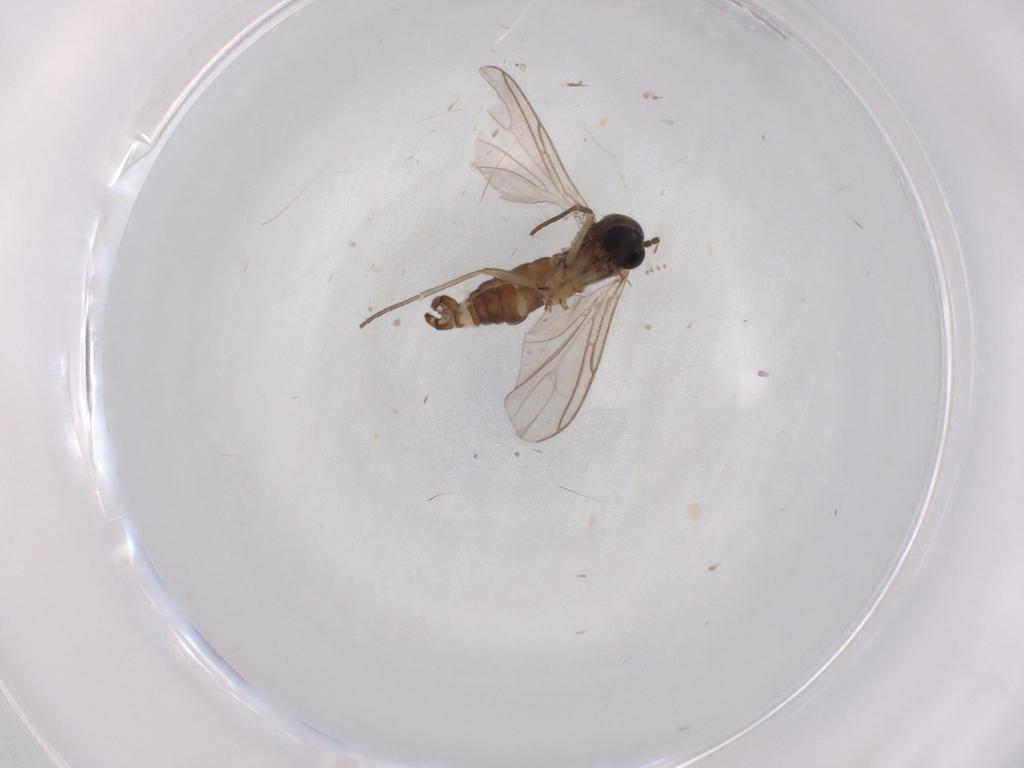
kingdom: Animalia
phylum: Arthropoda
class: Insecta
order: Diptera
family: Sciaridae
